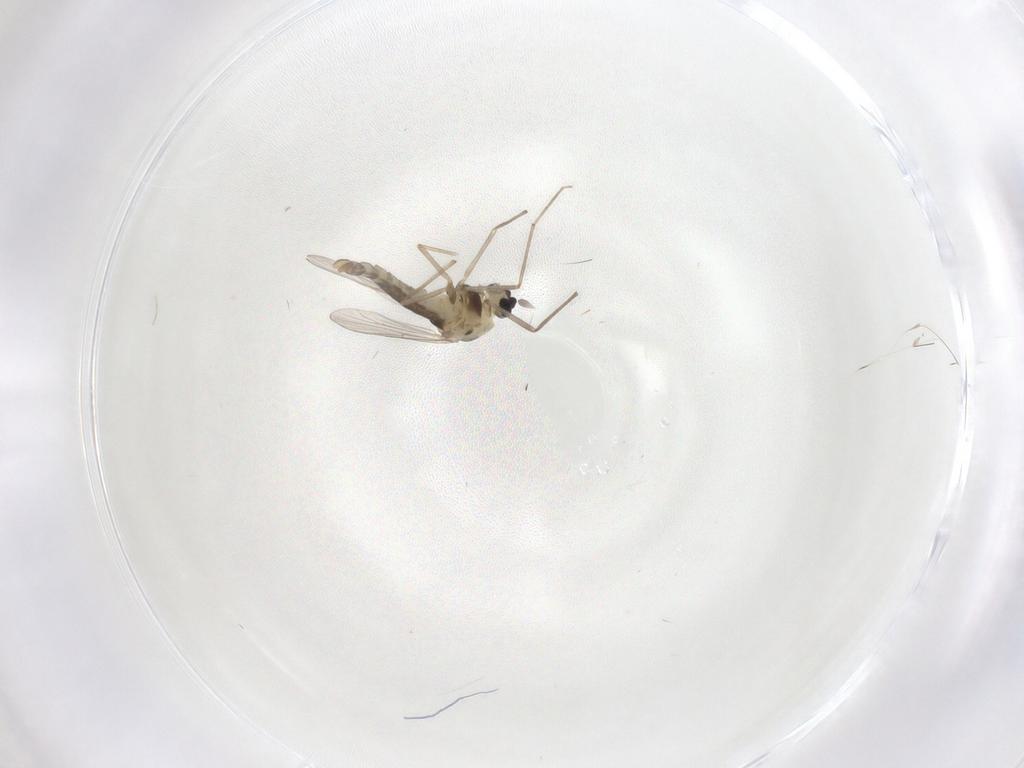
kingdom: Animalia
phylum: Arthropoda
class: Insecta
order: Diptera
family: Chironomidae
